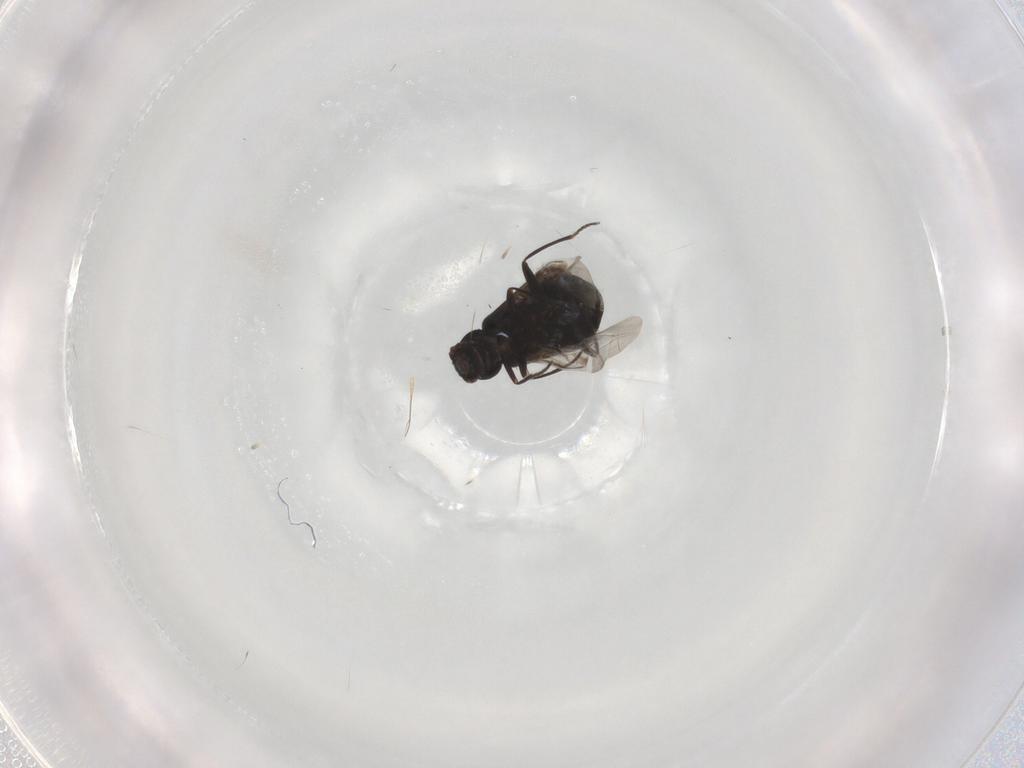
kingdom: Animalia
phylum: Arthropoda
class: Insecta
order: Coleoptera
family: Melyridae
